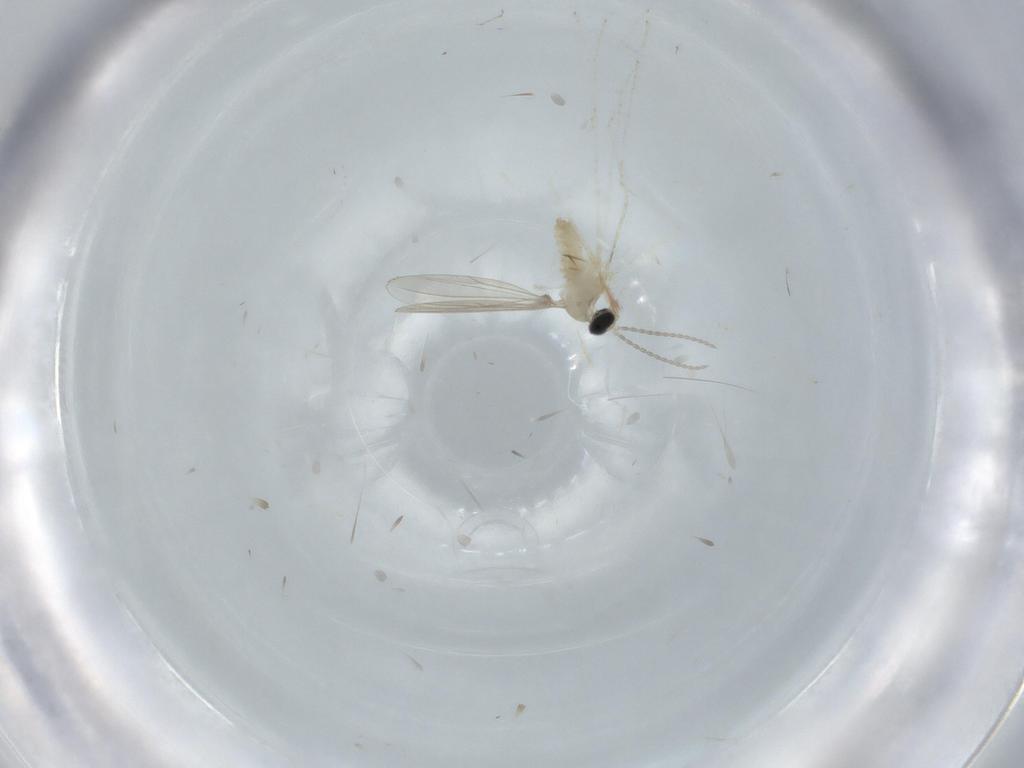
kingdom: Animalia
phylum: Arthropoda
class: Insecta
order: Diptera
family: Cecidomyiidae
